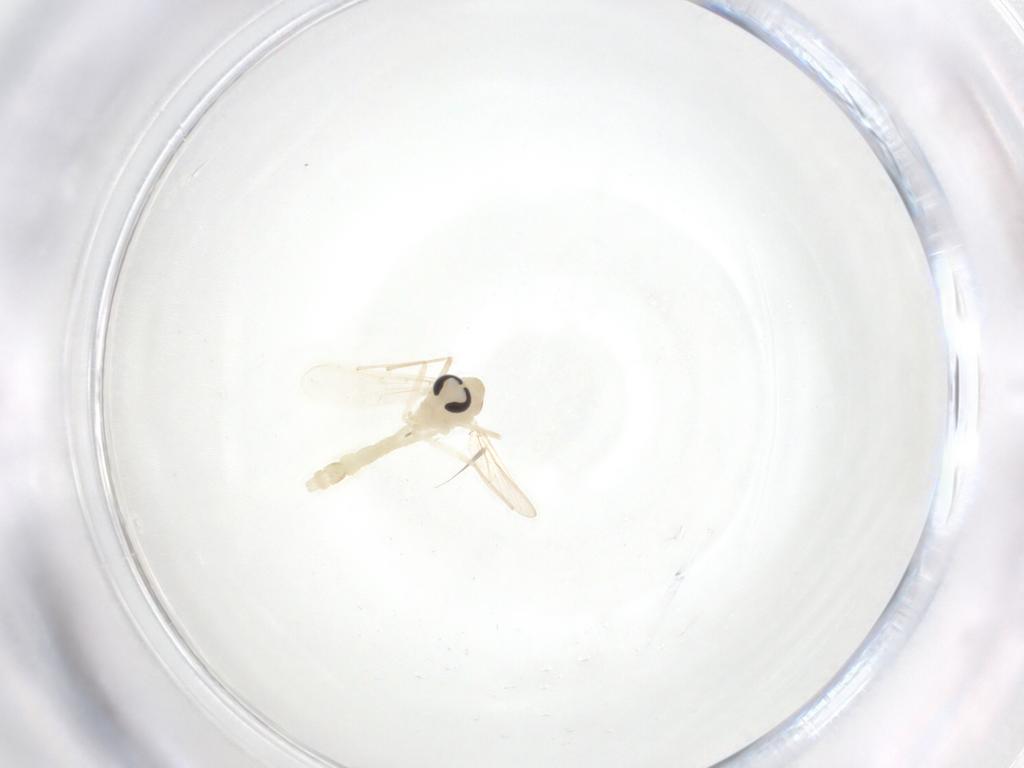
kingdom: Animalia
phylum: Arthropoda
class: Insecta
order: Diptera
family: Chironomidae
